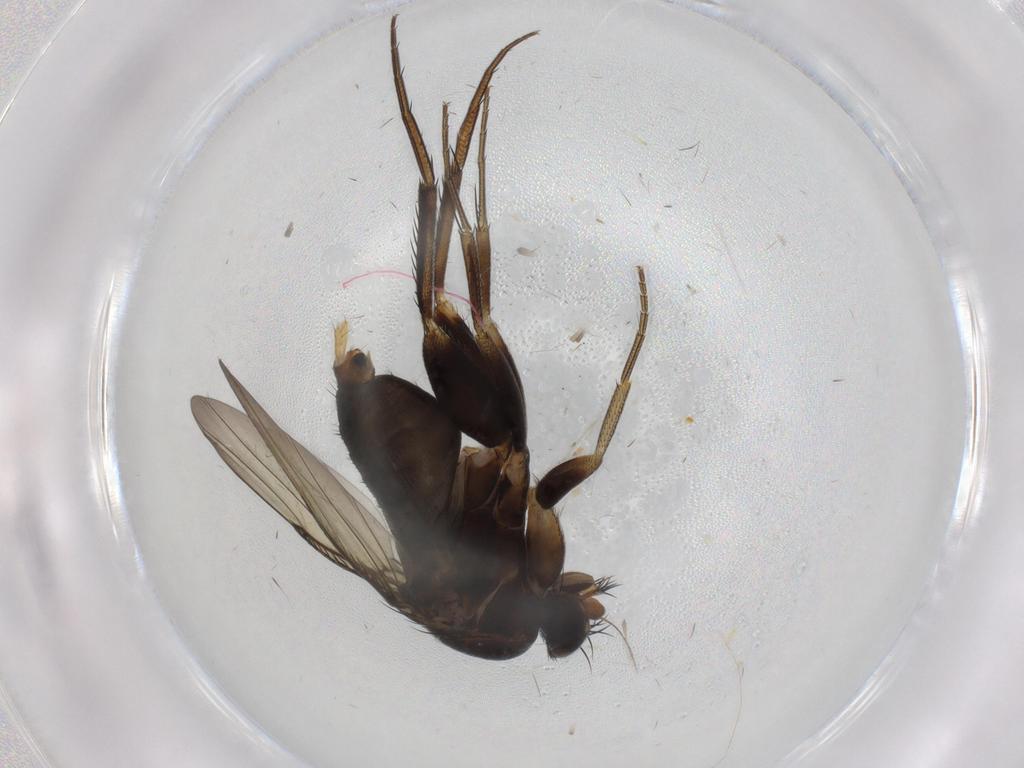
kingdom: Animalia
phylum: Arthropoda
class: Insecta
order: Diptera
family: Phoridae
